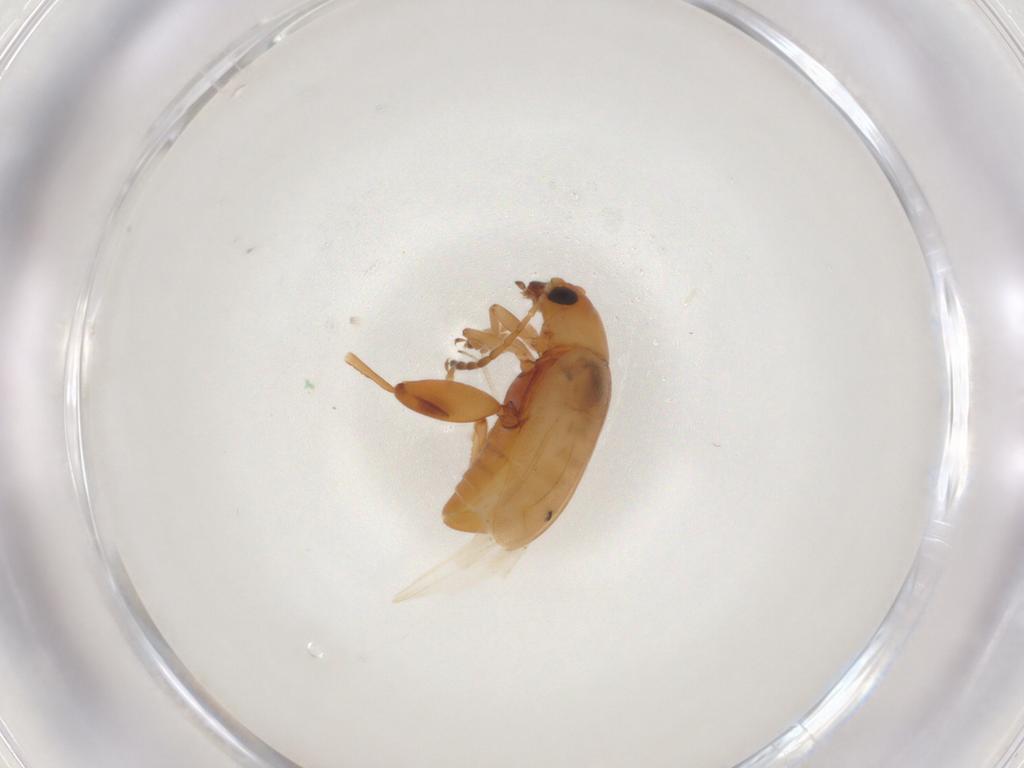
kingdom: Animalia
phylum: Arthropoda
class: Insecta
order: Coleoptera
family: Chrysomelidae
